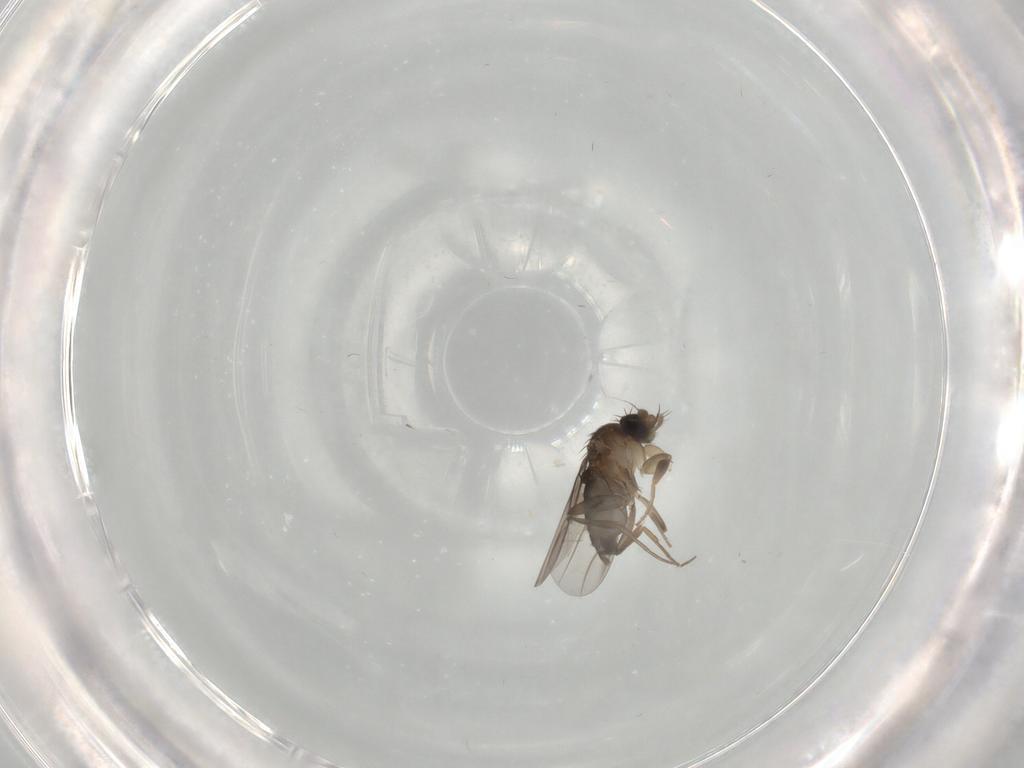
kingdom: Animalia
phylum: Arthropoda
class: Insecta
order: Diptera
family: Phoridae
